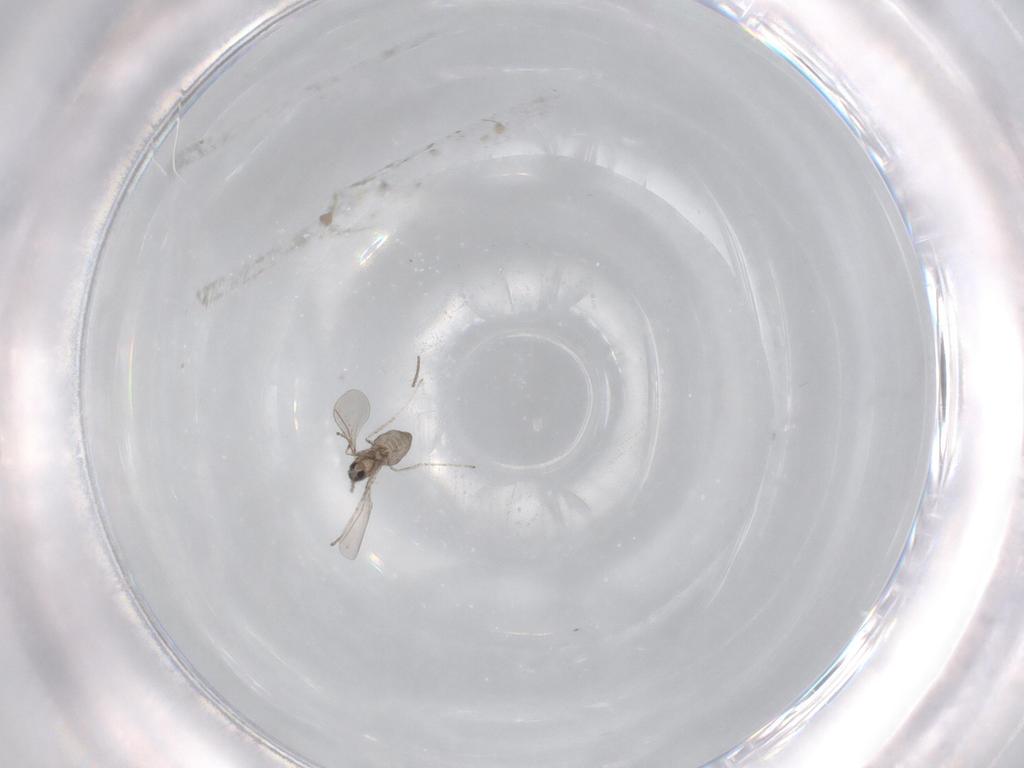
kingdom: Animalia
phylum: Arthropoda
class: Insecta
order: Diptera
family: Cecidomyiidae
